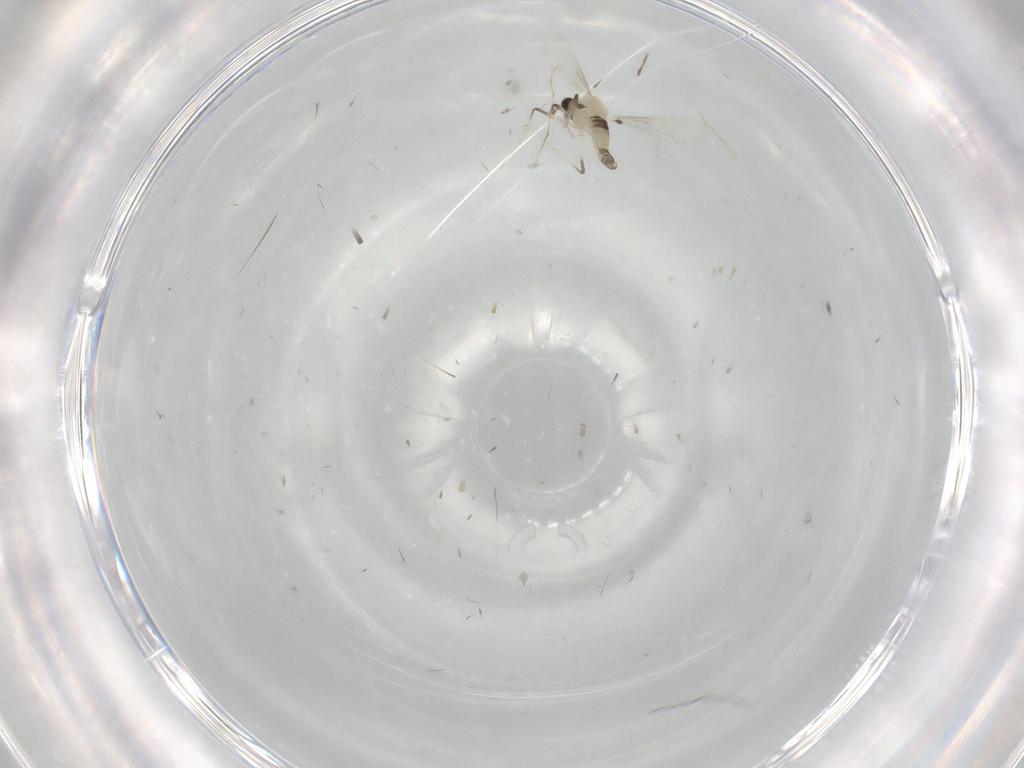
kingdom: Animalia
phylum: Arthropoda
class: Insecta
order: Diptera
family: Chironomidae
